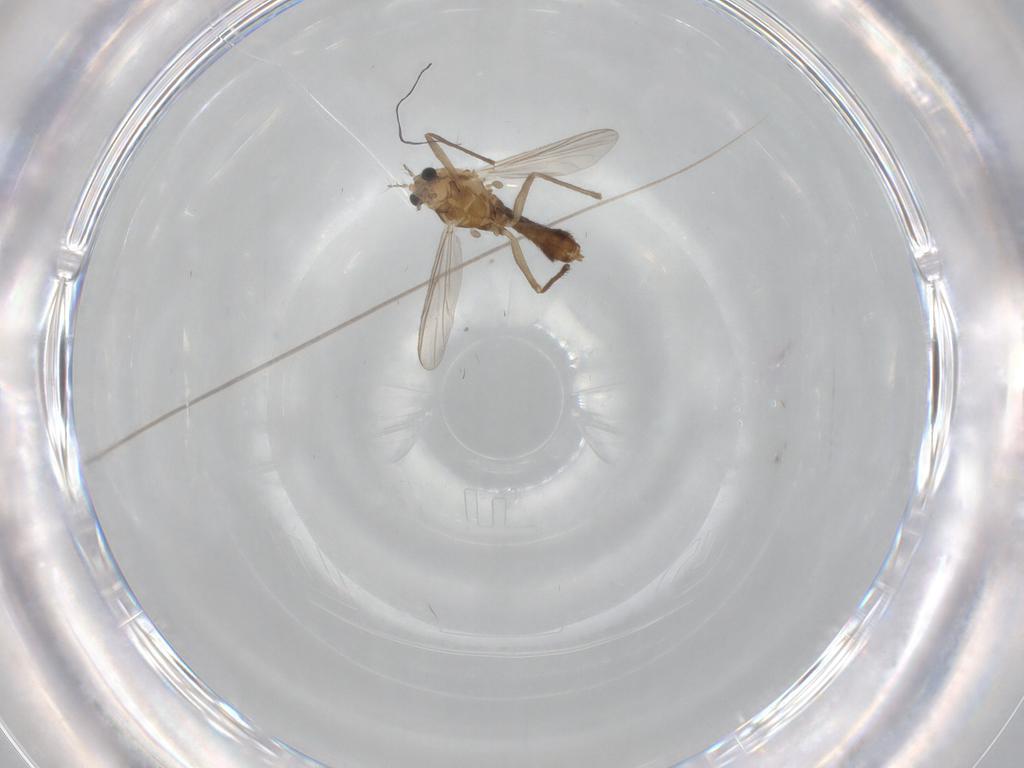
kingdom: Animalia
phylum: Arthropoda
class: Insecta
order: Diptera
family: Chironomidae
